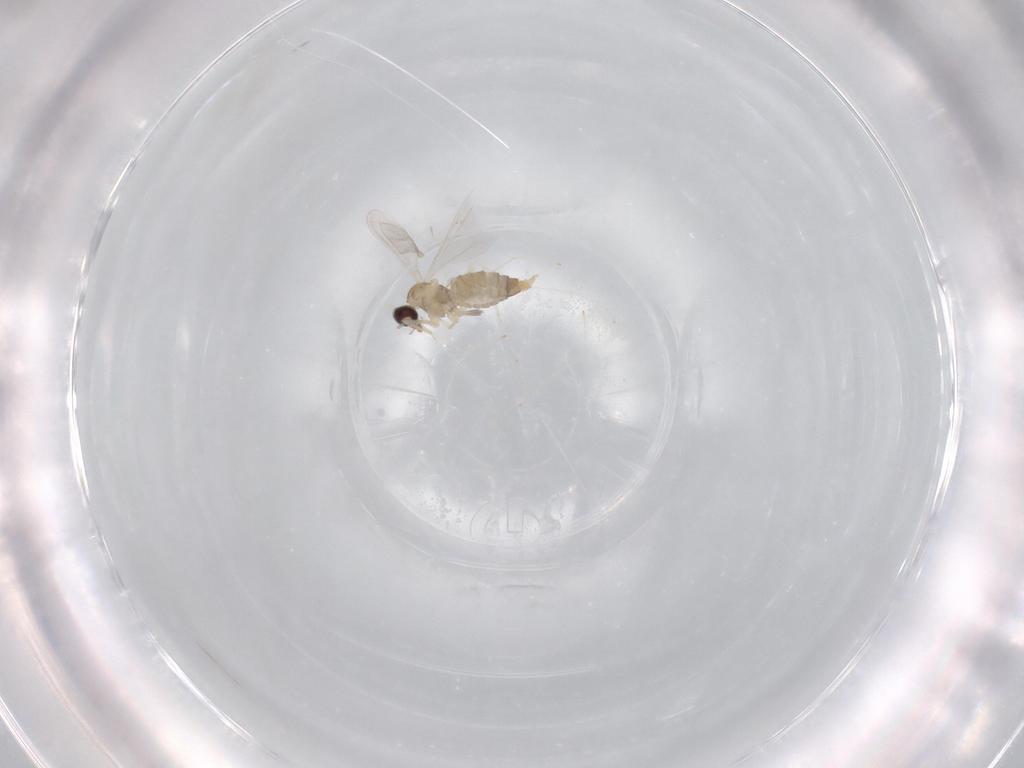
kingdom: Animalia
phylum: Arthropoda
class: Insecta
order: Diptera
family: Cecidomyiidae
